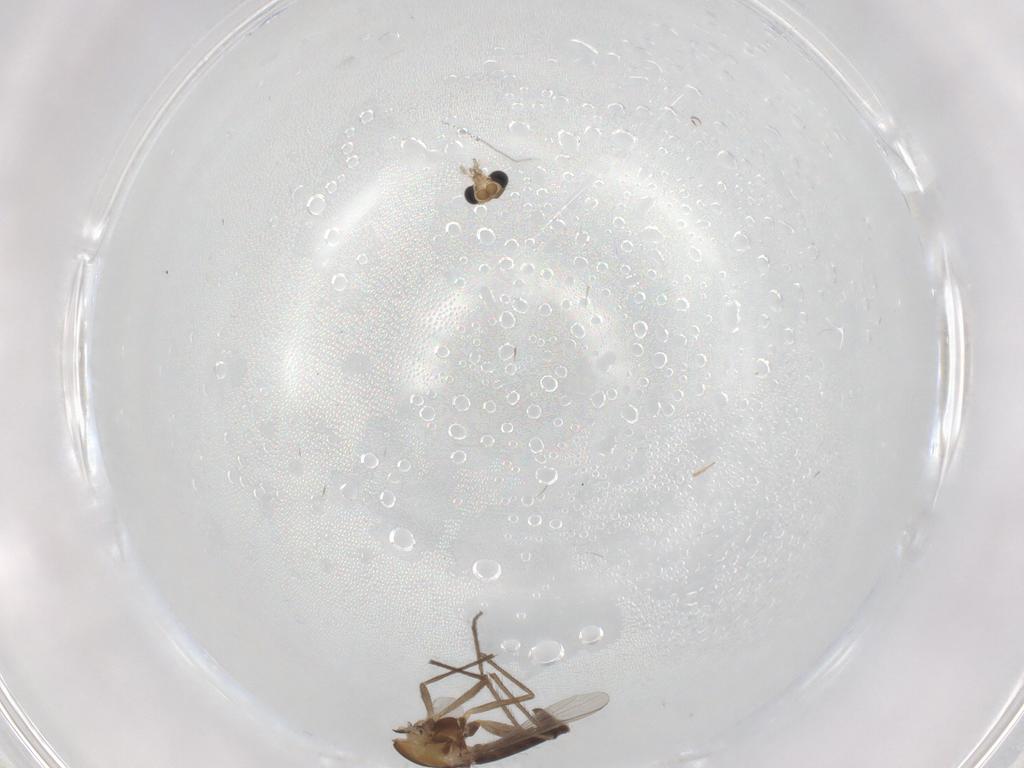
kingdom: Animalia
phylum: Arthropoda
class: Insecta
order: Diptera
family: Chironomidae
